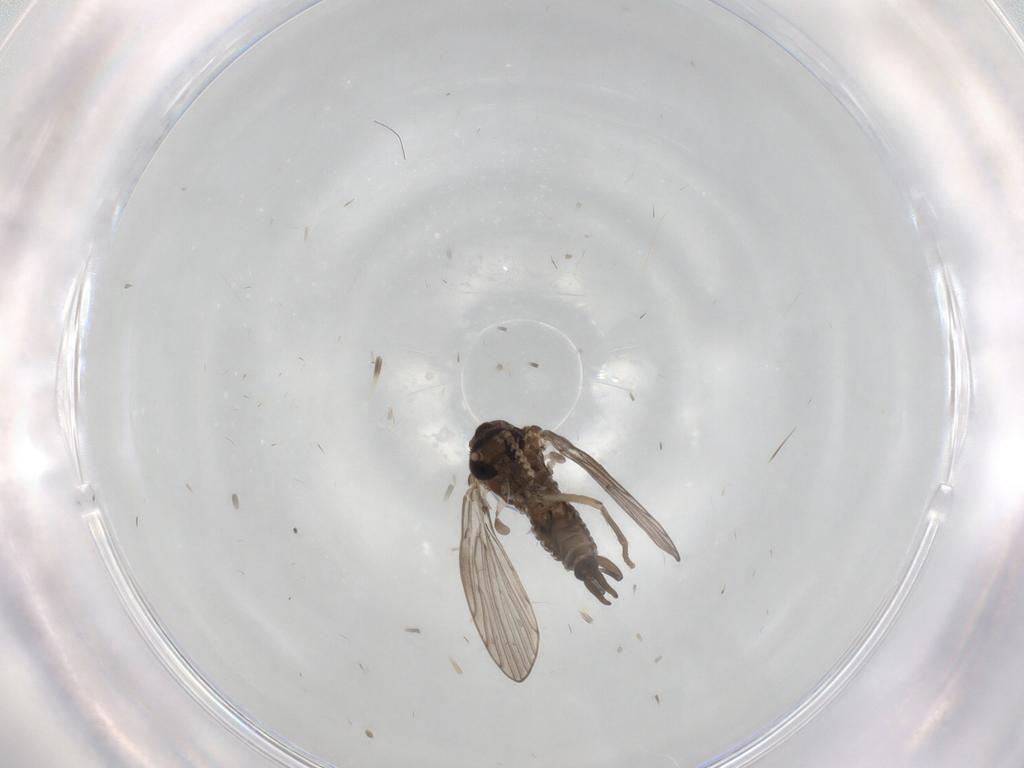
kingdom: Animalia
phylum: Arthropoda
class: Insecta
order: Diptera
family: Psychodidae
